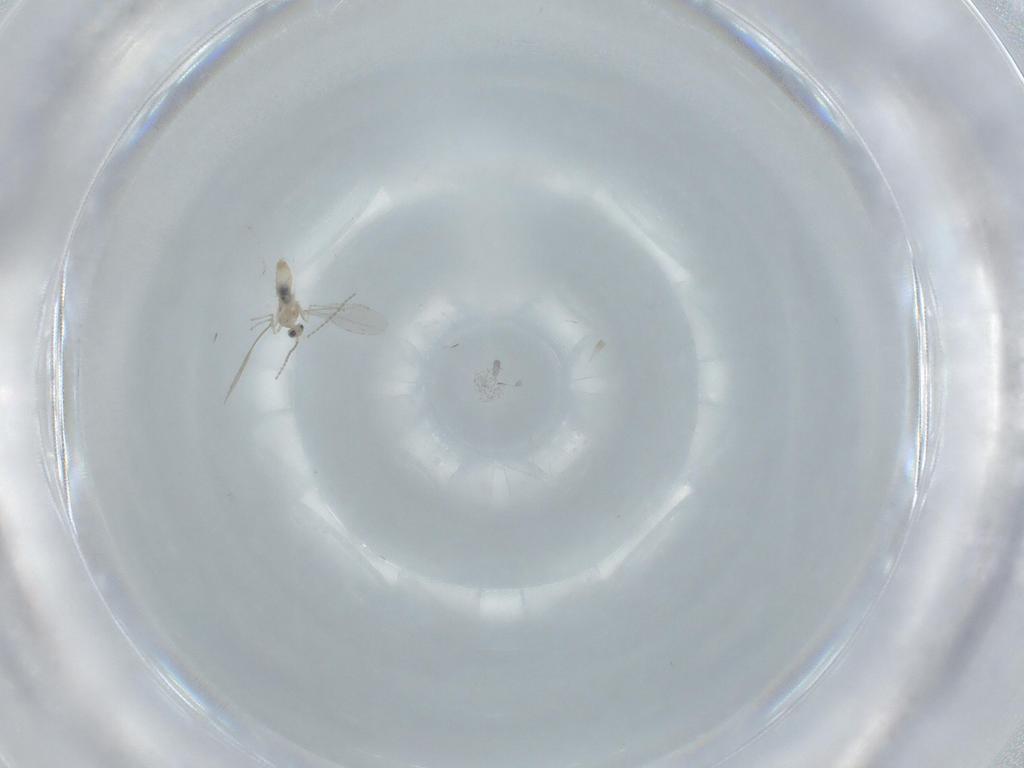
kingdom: Animalia
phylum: Arthropoda
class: Insecta
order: Diptera
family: Cecidomyiidae
